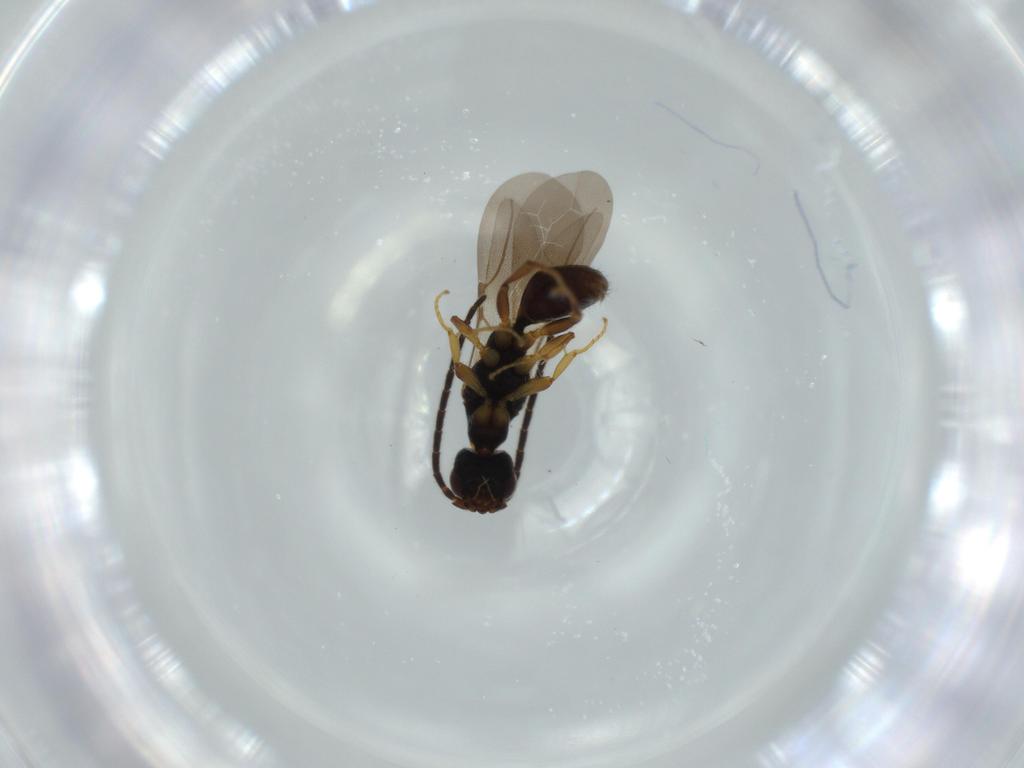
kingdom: Animalia
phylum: Arthropoda
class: Insecta
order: Hymenoptera
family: Bethylidae
